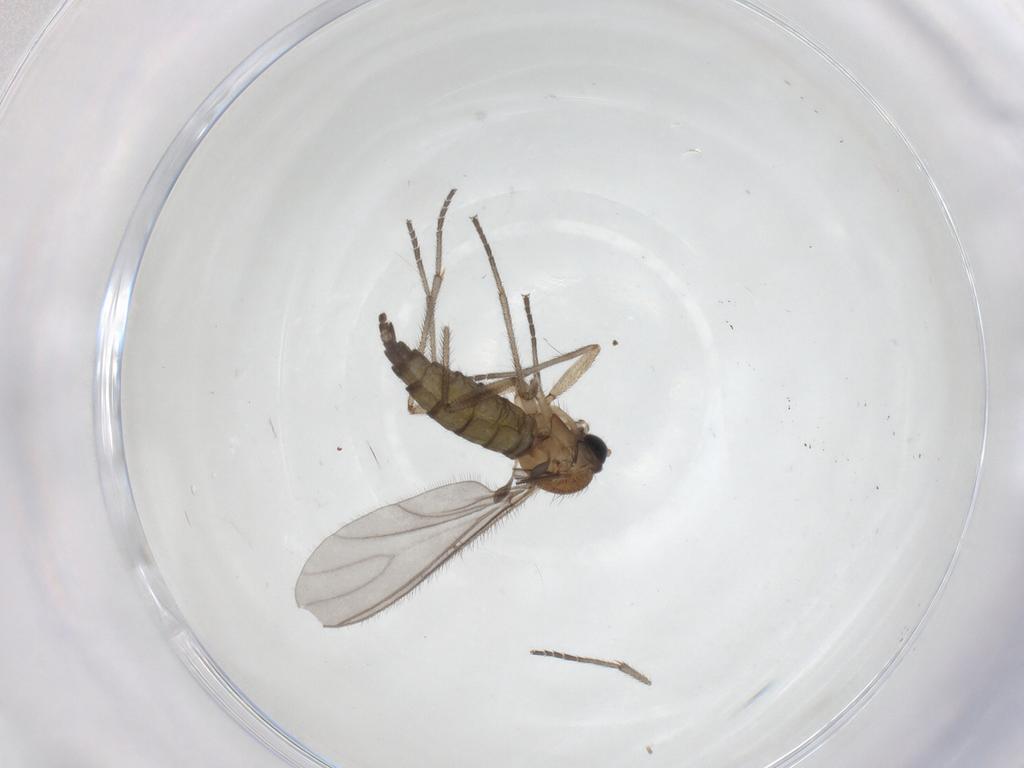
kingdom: Animalia
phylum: Arthropoda
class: Insecta
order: Diptera
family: Sciaridae
